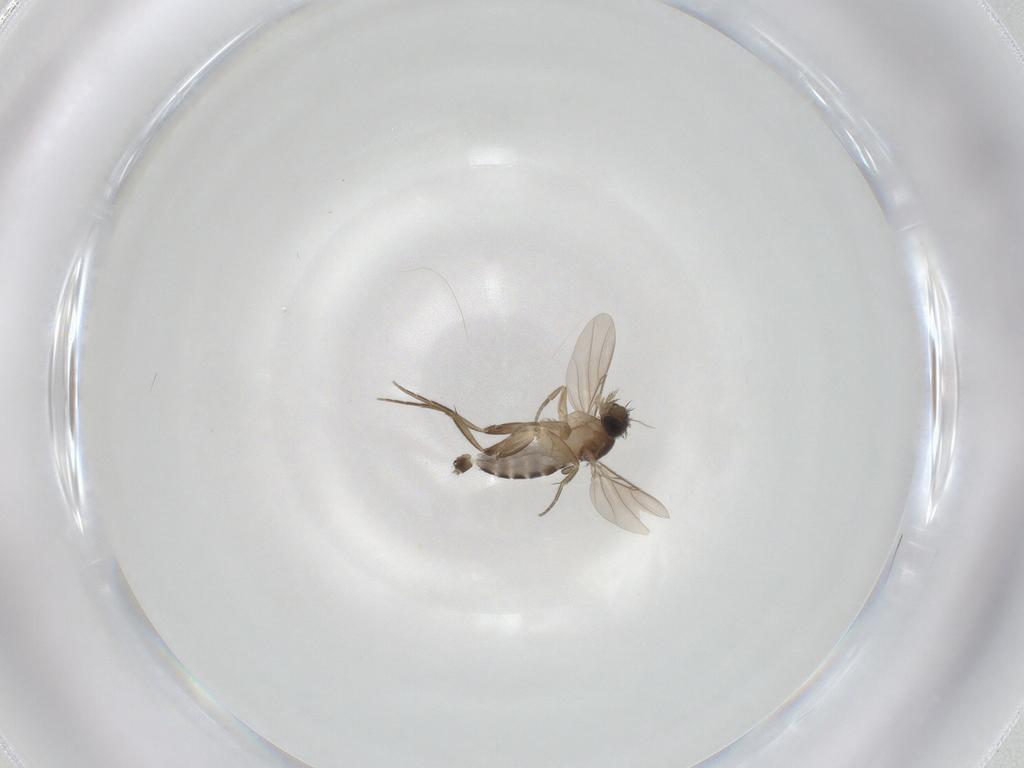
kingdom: Animalia
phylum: Arthropoda
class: Insecta
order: Diptera
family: Phoridae
